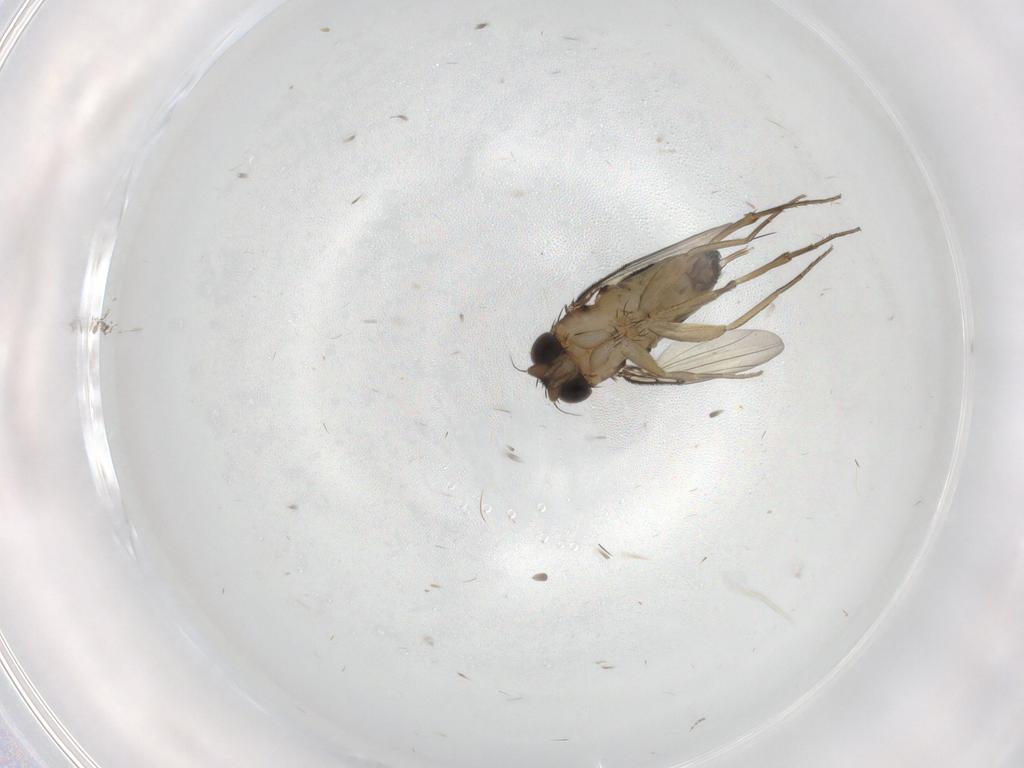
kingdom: Animalia
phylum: Arthropoda
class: Insecta
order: Diptera
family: Phoridae
